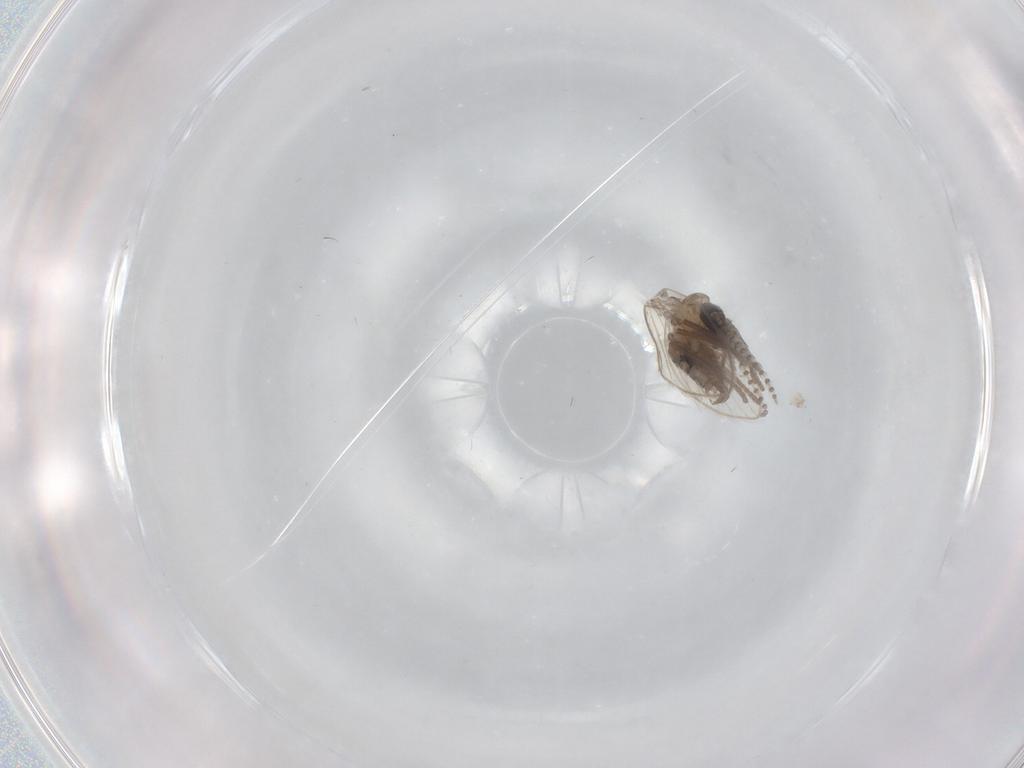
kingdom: Animalia
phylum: Arthropoda
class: Insecta
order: Diptera
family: Psychodidae
